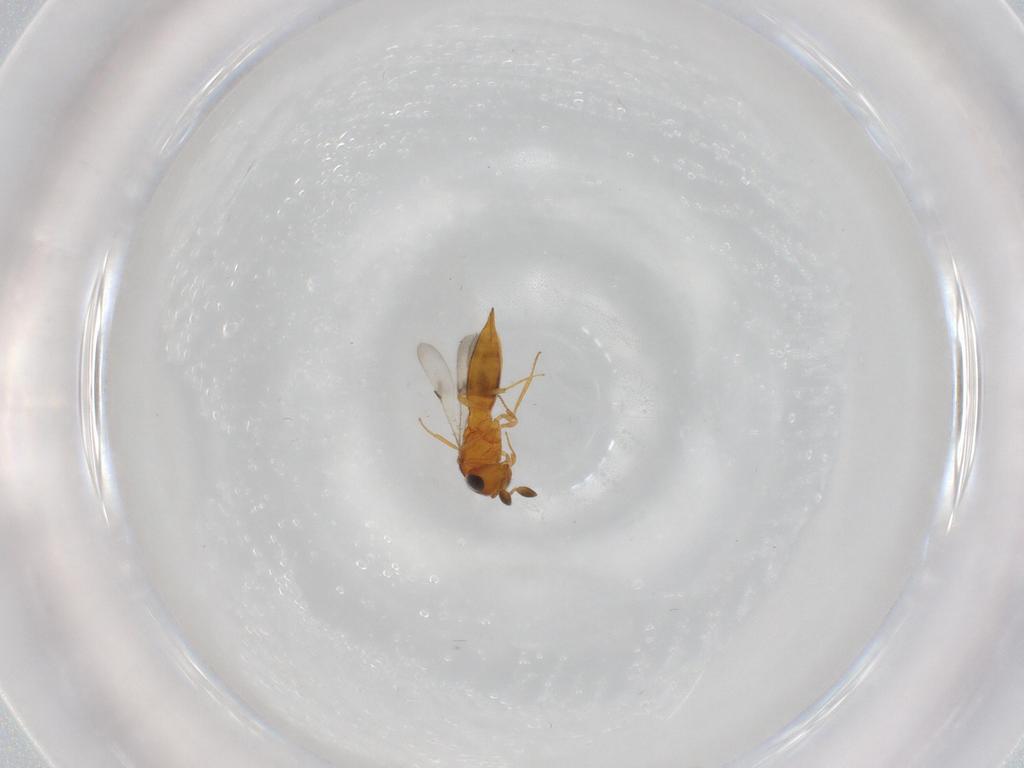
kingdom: Animalia
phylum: Arthropoda
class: Insecta
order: Hymenoptera
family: Scelionidae
